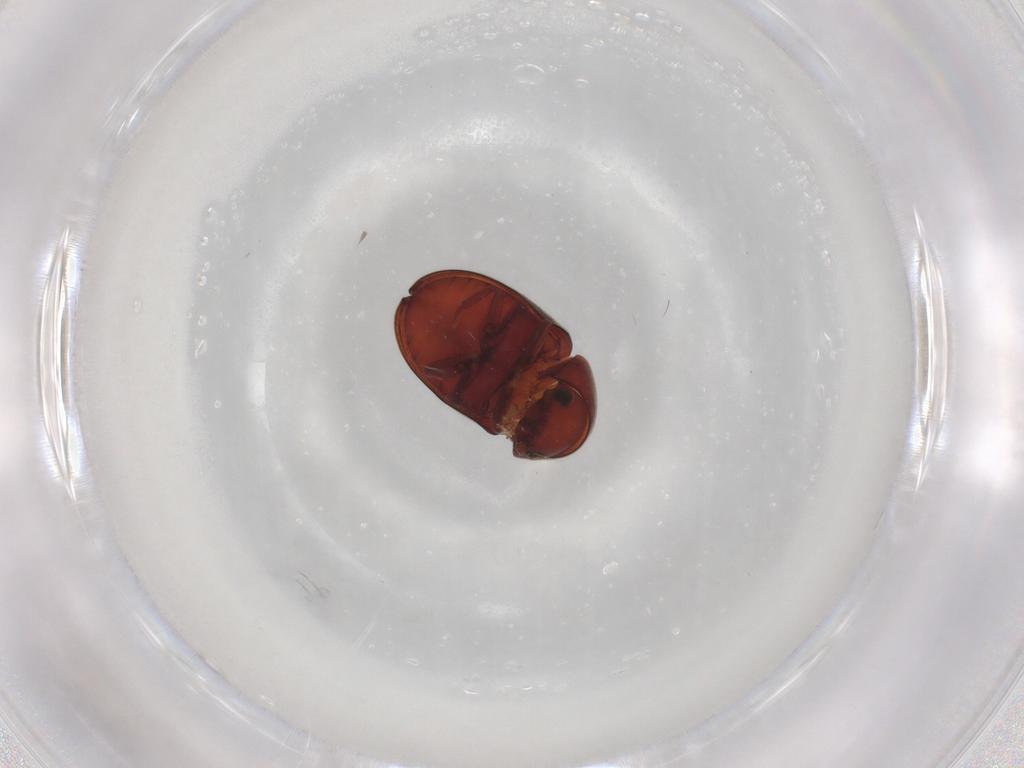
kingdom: Animalia
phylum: Arthropoda
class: Insecta
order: Coleoptera
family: Ptinidae
